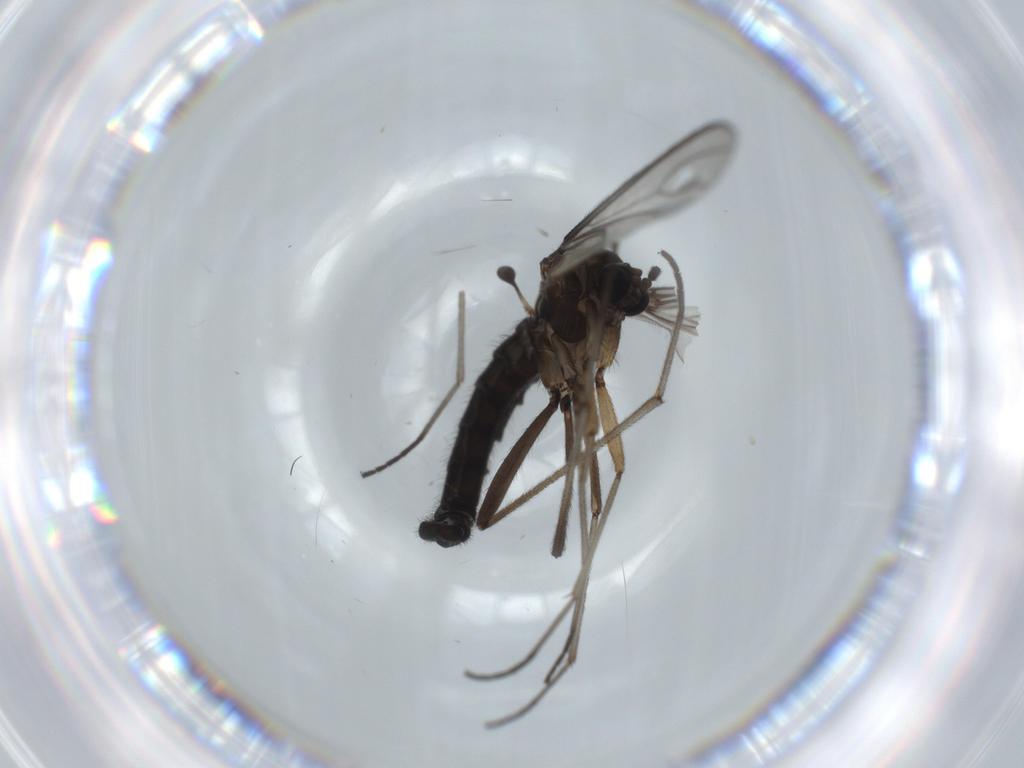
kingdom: Animalia
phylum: Arthropoda
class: Insecta
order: Diptera
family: Sciaridae
